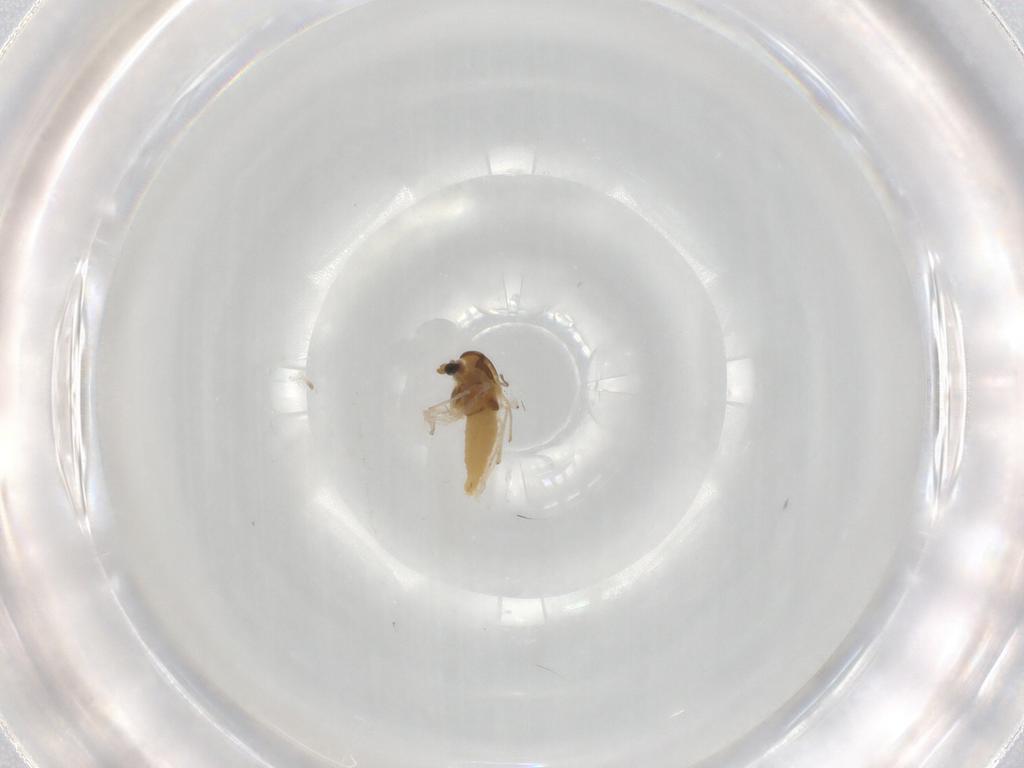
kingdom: Animalia
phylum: Arthropoda
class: Insecta
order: Diptera
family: Chironomidae
